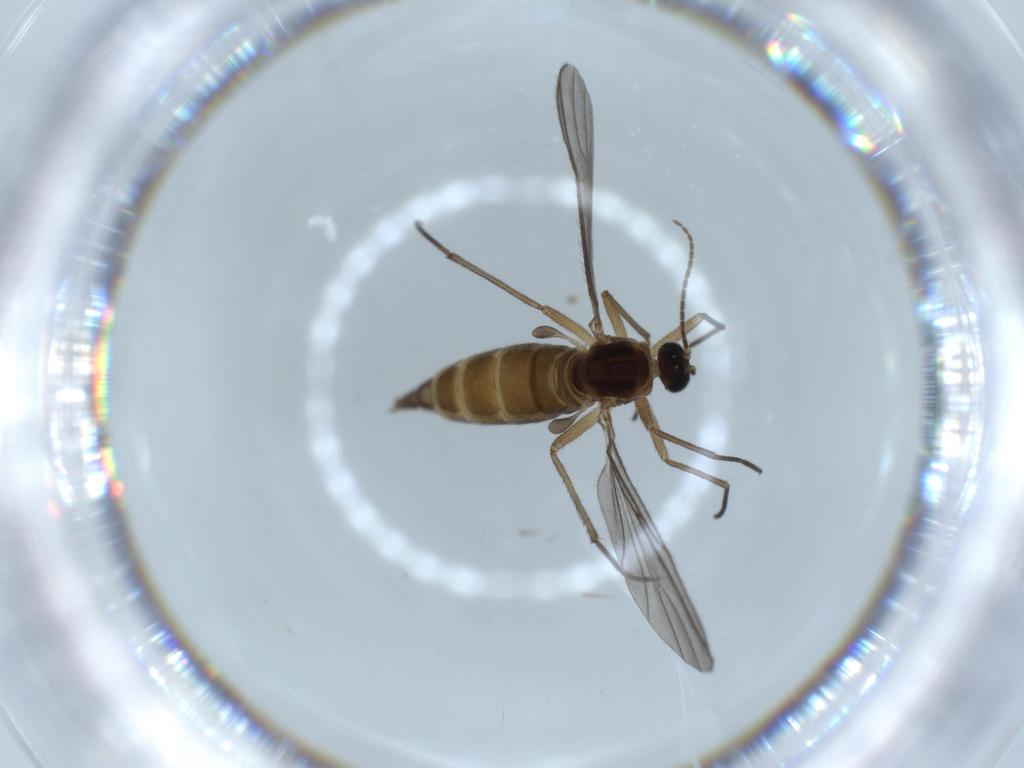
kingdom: Animalia
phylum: Arthropoda
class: Insecta
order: Diptera
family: Sciaridae
